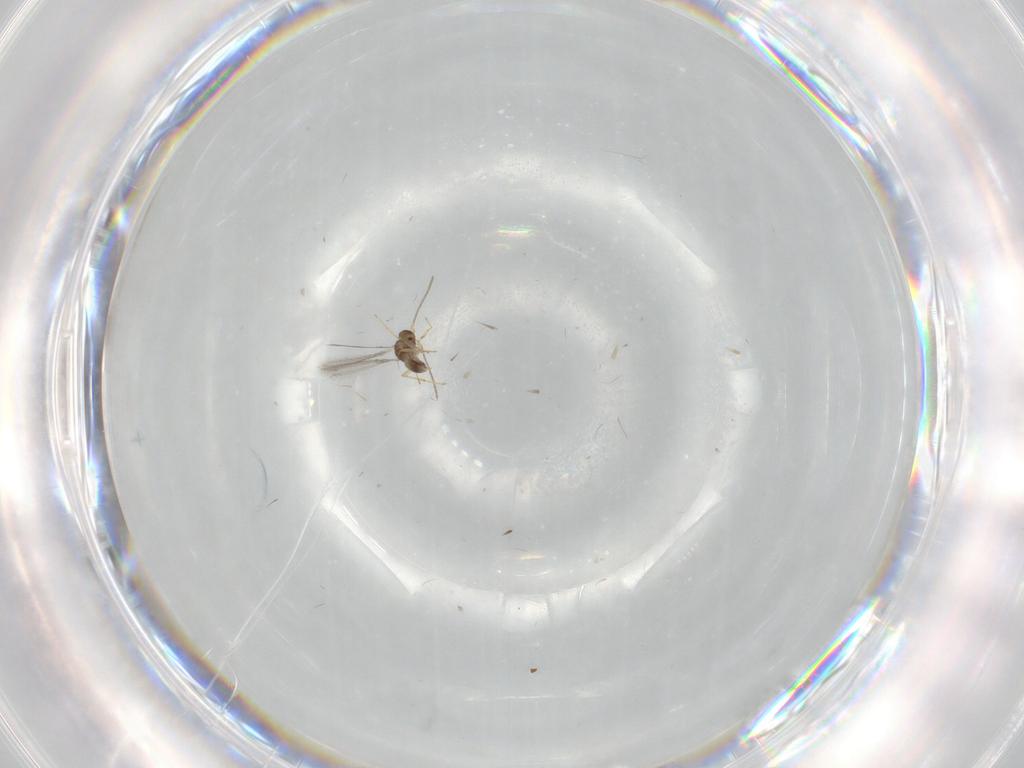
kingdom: Animalia
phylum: Arthropoda
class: Insecta
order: Hymenoptera
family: Mymaridae
